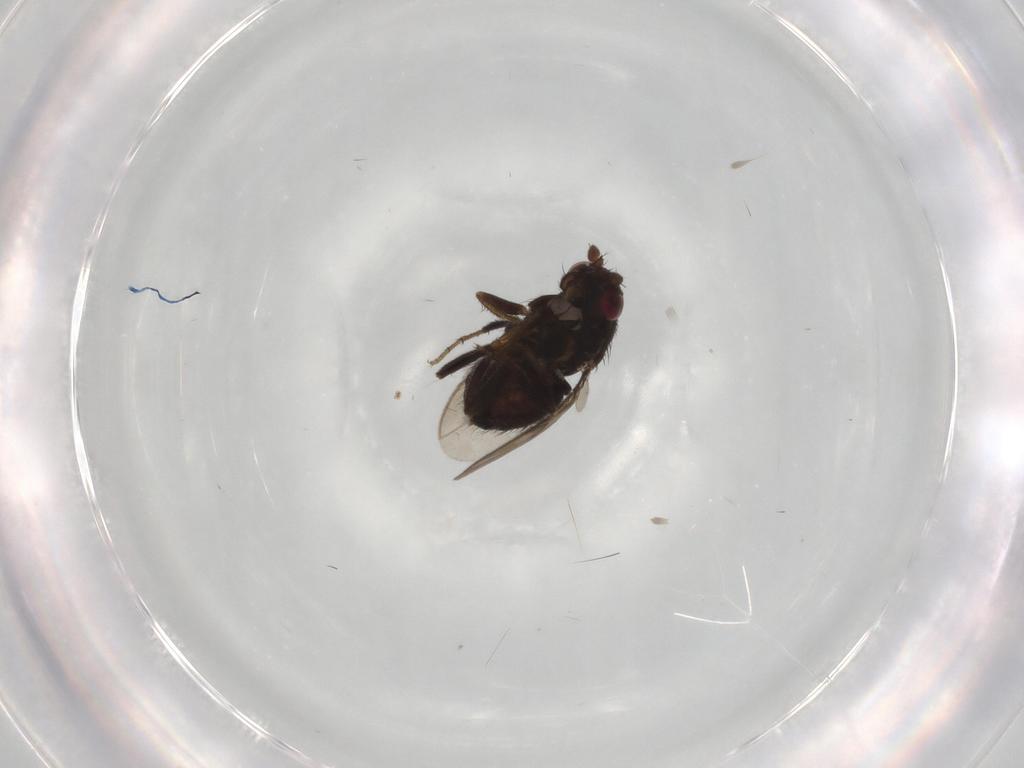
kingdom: Animalia
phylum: Arthropoda
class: Insecta
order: Diptera
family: Sphaeroceridae
